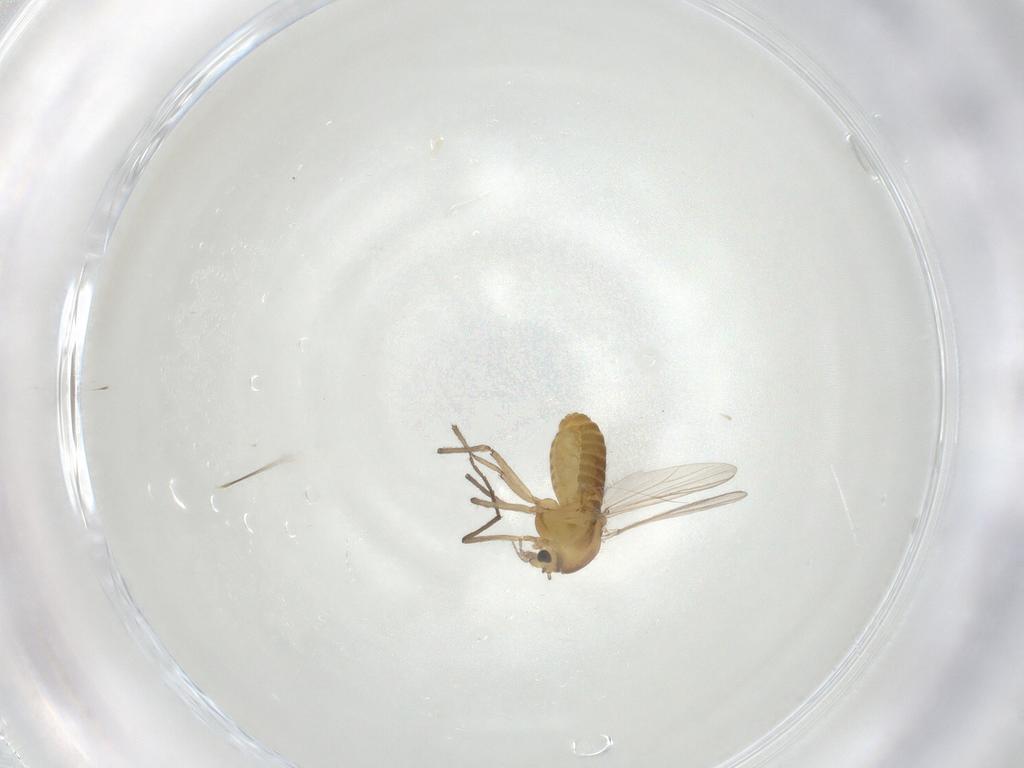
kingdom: Animalia
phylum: Arthropoda
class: Insecta
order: Diptera
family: Chironomidae
